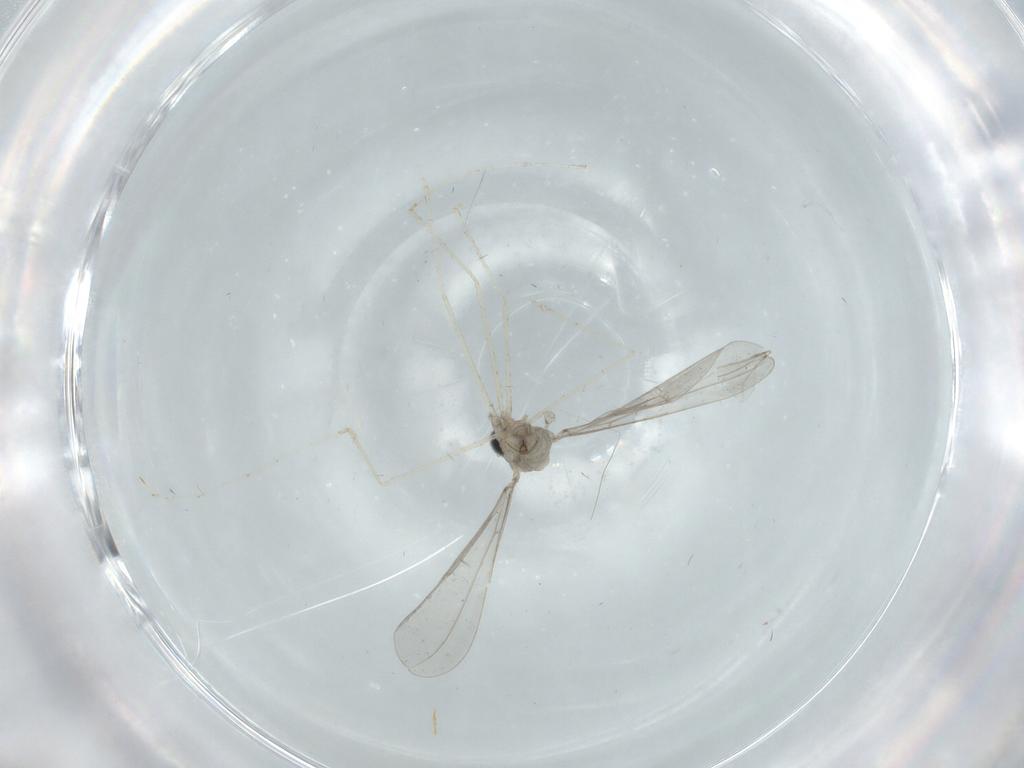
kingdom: Animalia
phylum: Arthropoda
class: Insecta
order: Diptera
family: Cecidomyiidae
